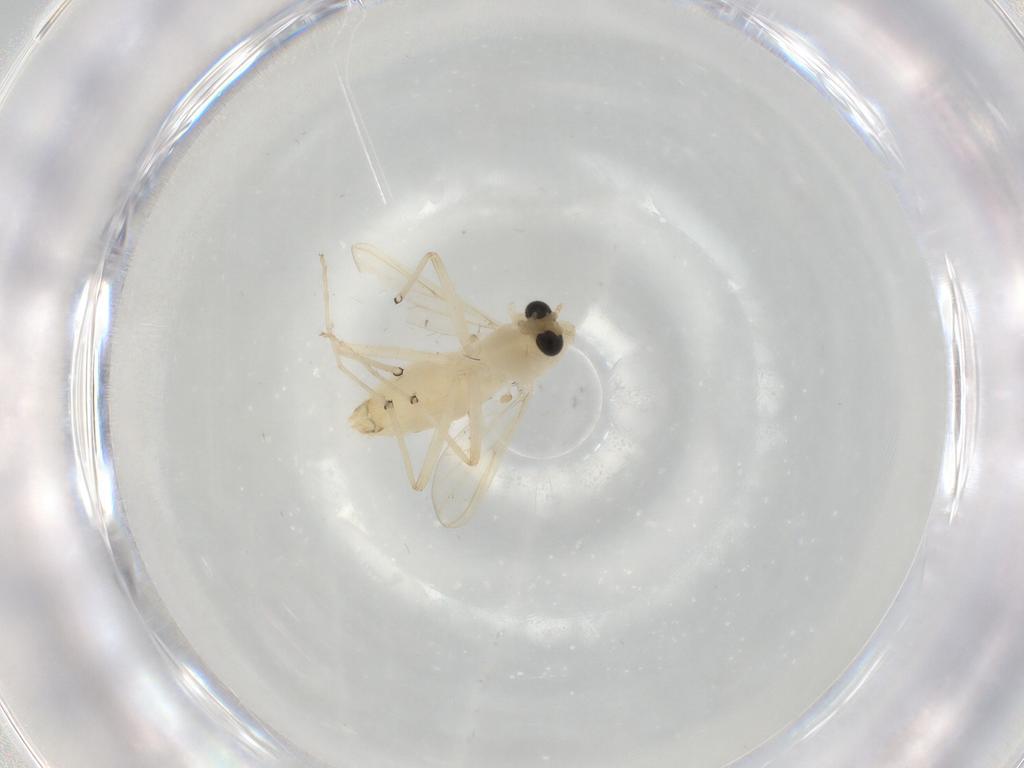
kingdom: Animalia
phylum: Arthropoda
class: Insecta
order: Diptera
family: Chironomidae
